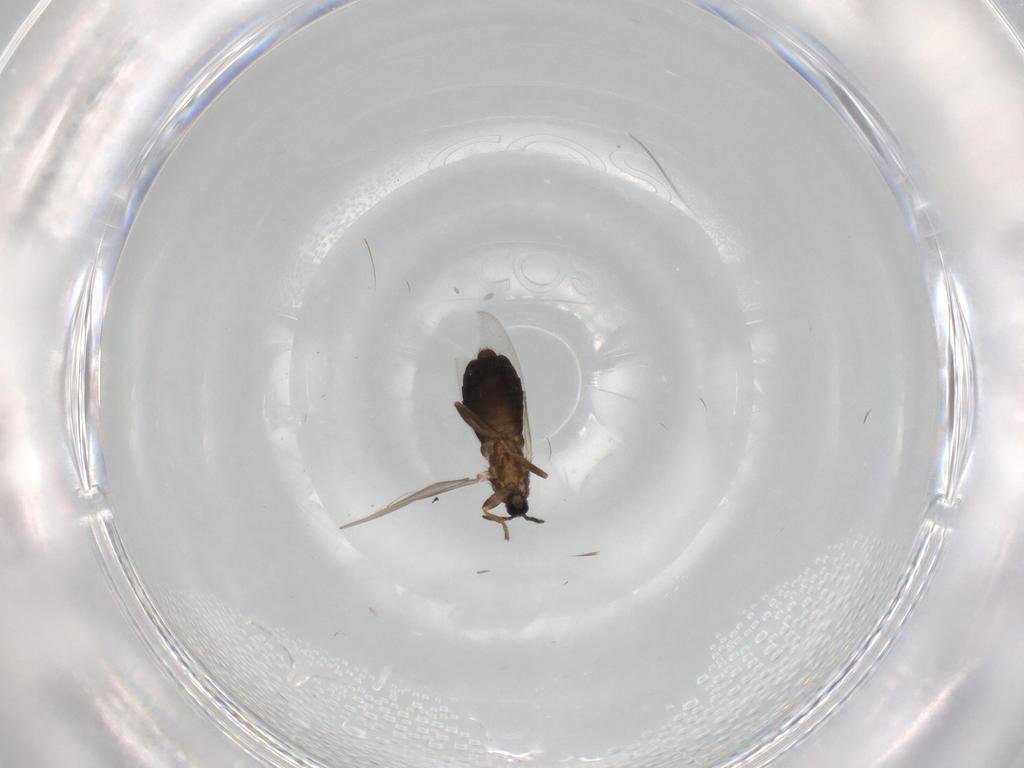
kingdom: Animalia
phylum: Arthropoda
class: Insecta
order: Diptera
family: Scatopsidae
